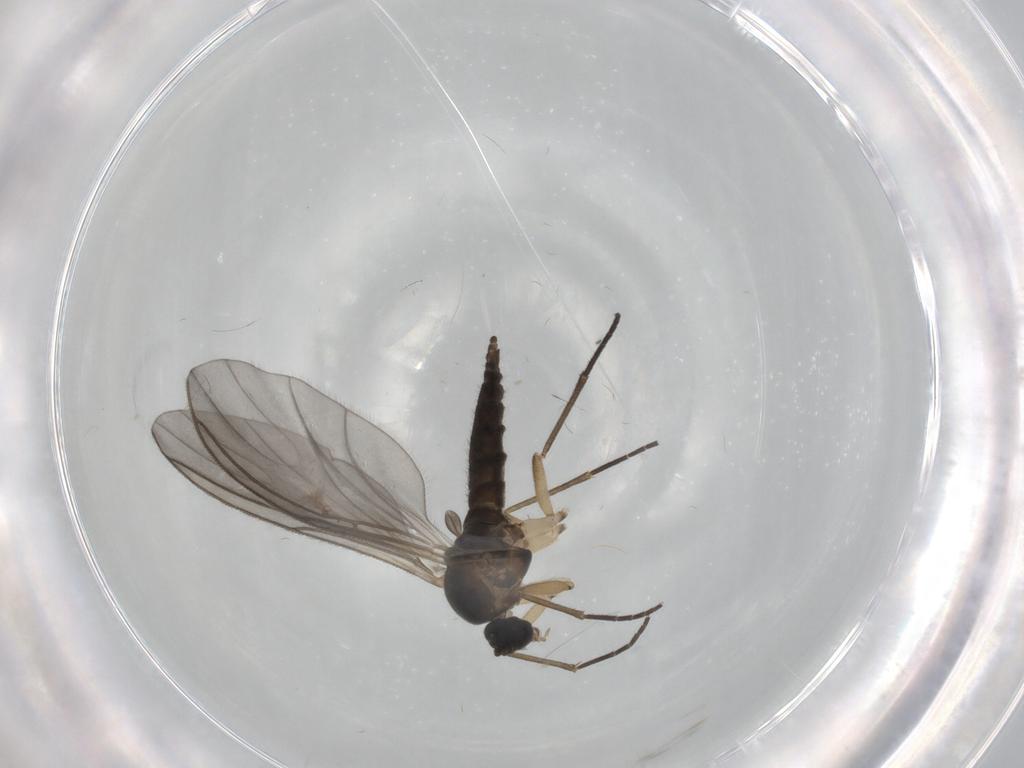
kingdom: Animalia
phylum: Arthropoda
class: Insecta
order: Diptera
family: Sciaridae
